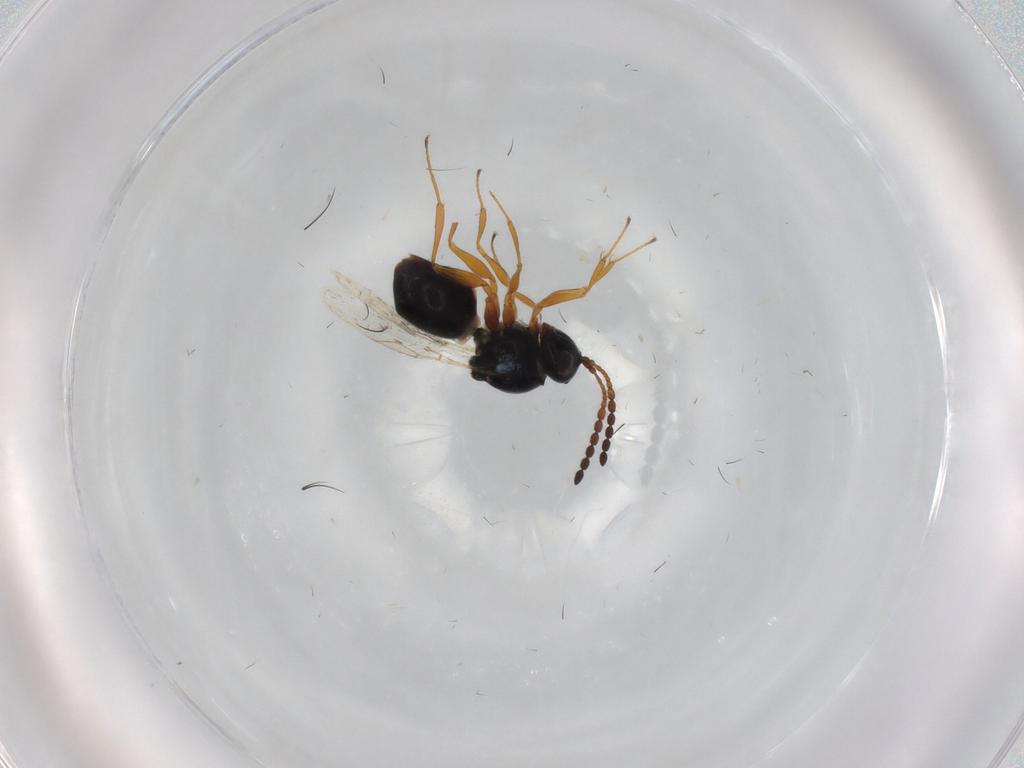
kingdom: Animalia
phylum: Arthropoda
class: Insecta
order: Hymenoptera
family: Figitidae
